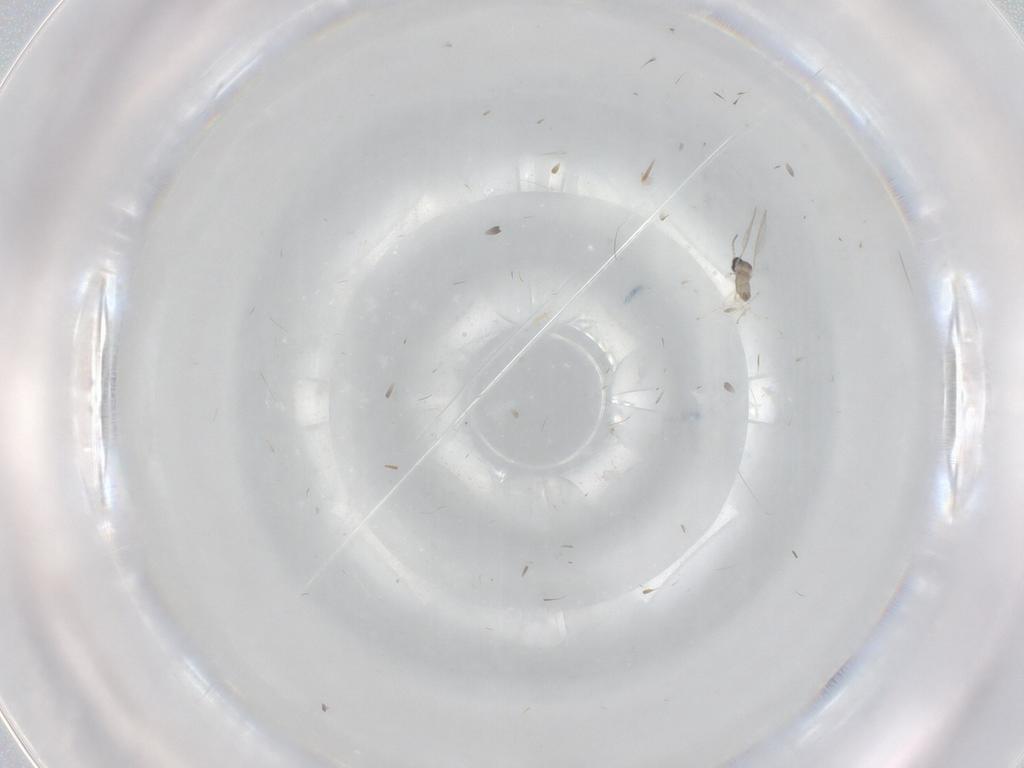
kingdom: Animalia
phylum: Arthropoda
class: Insecta
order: Diptera
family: Cecidomyiidae
